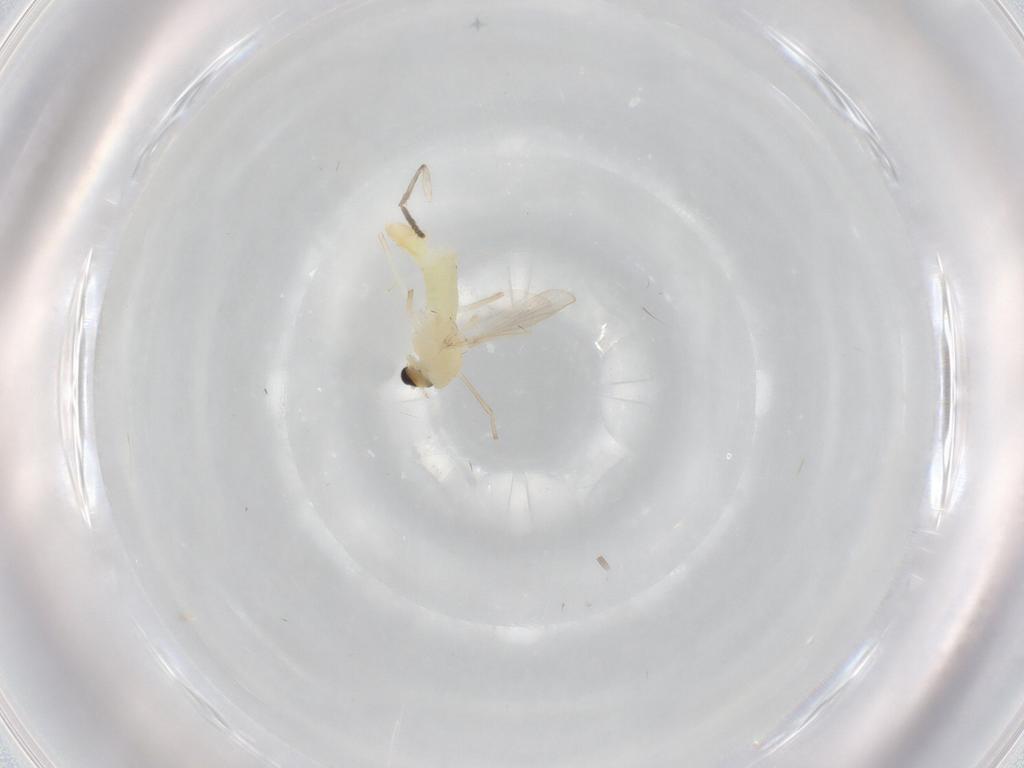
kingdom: Animalia
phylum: Arthropoda
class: Insecta
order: Diptera
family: Chironomidae
